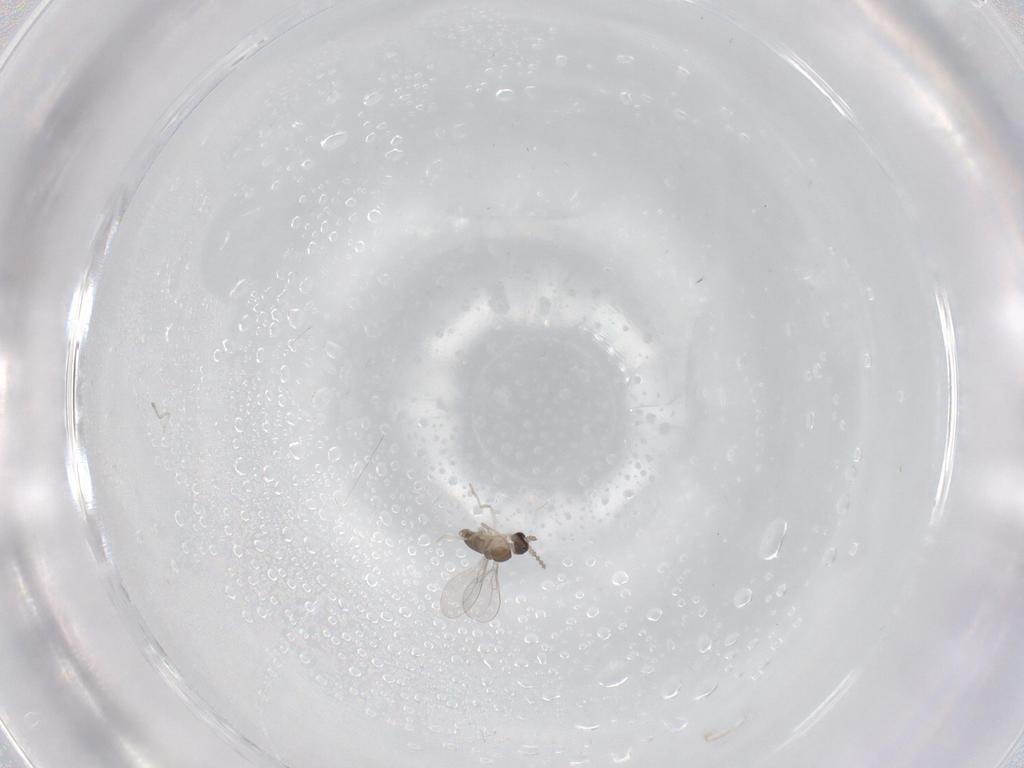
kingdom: Animalia
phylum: Arthropoda
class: Insecta
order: Diptera
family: Cecidomyiidae
